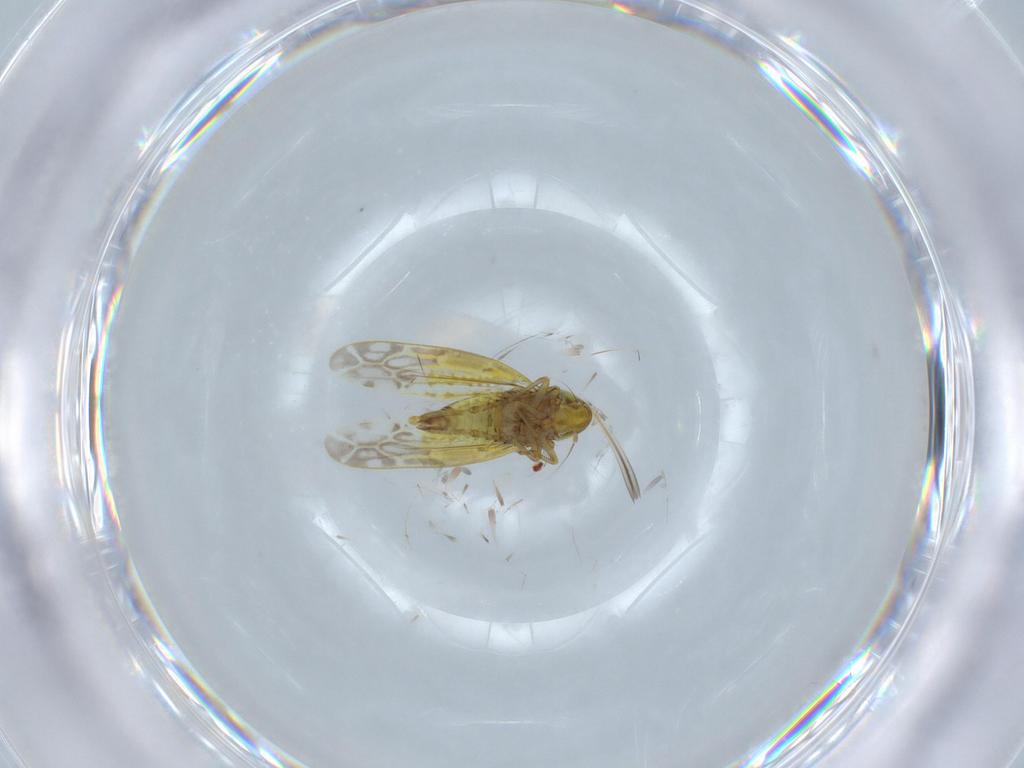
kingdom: Animalia
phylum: Arthropoda
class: Insecta
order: Hemiptera
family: Cicadellidae
